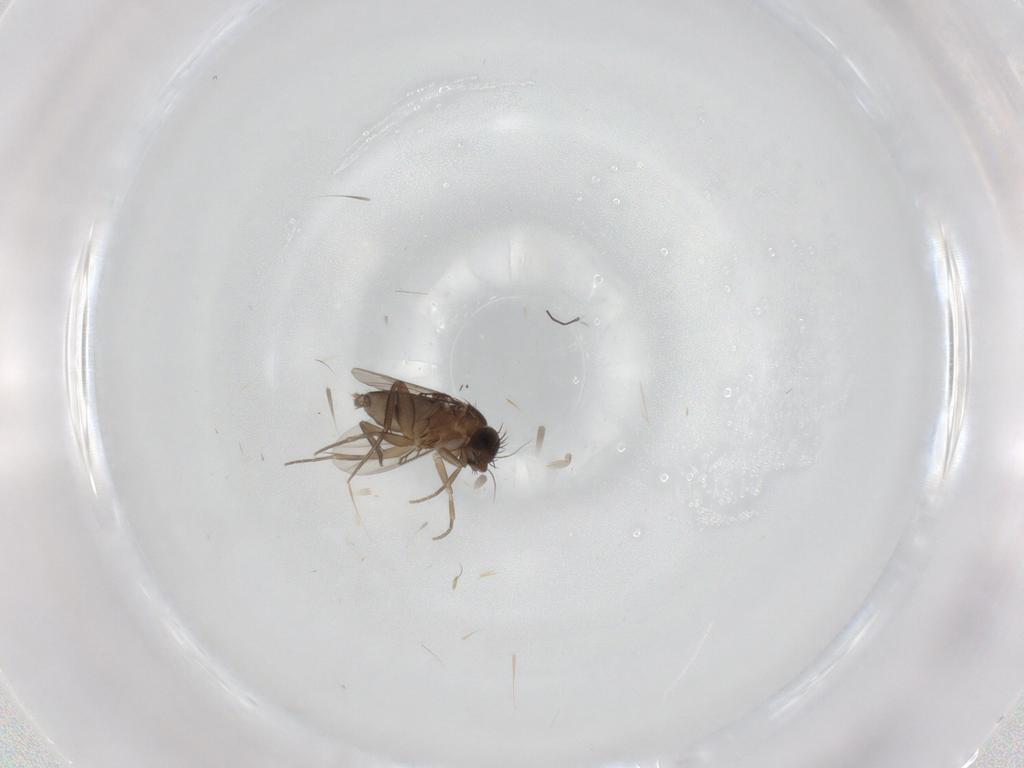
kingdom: Animalia
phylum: Arthropoda
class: Insecta
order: Diptera
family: Phoridae
